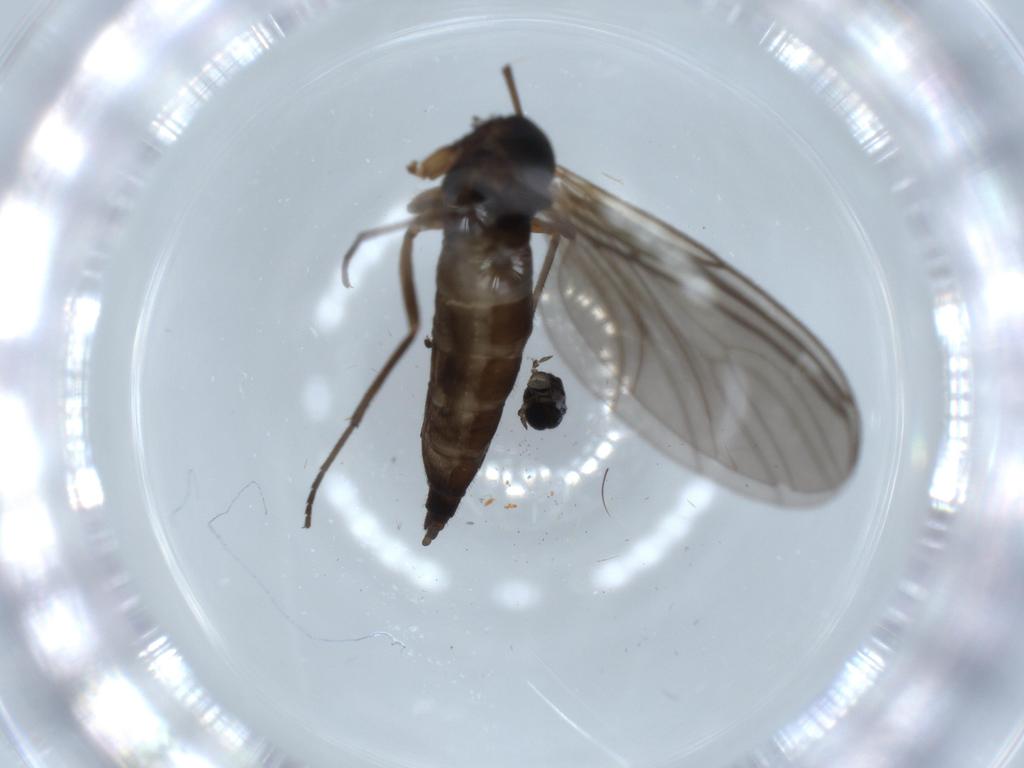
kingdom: Animalia
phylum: Arthropoda
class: Insecta
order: Diptera
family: Sciaridae
